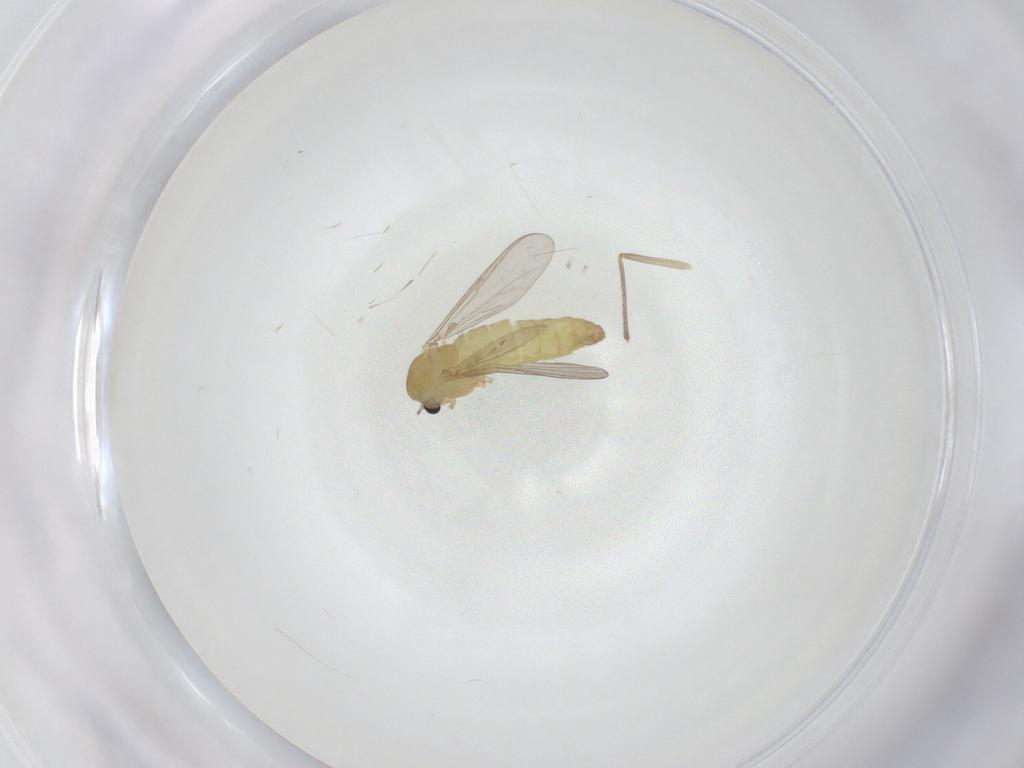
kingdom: Animalia
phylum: Arthropoda
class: Insecta
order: Diptera
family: Chironomidae
